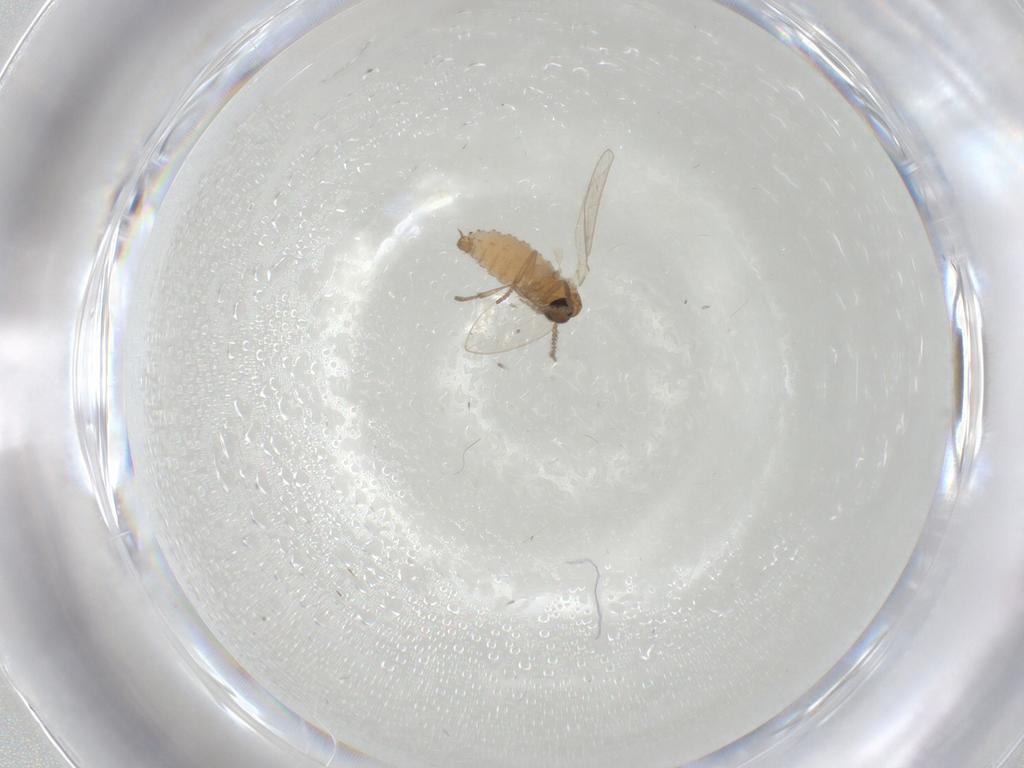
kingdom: Animalia
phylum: Arthropoda
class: Insecta
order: Diptera
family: Psychodidae
